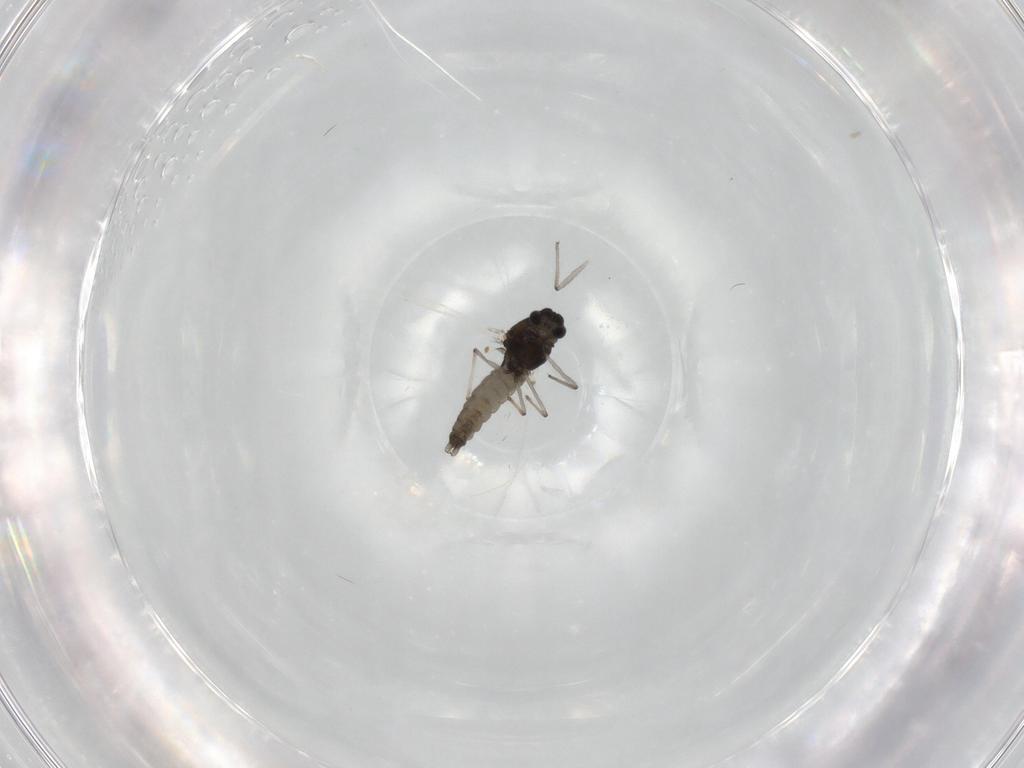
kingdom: Animalia
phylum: Arthropoda
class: Insecta
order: Diptera
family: Chironomidae
